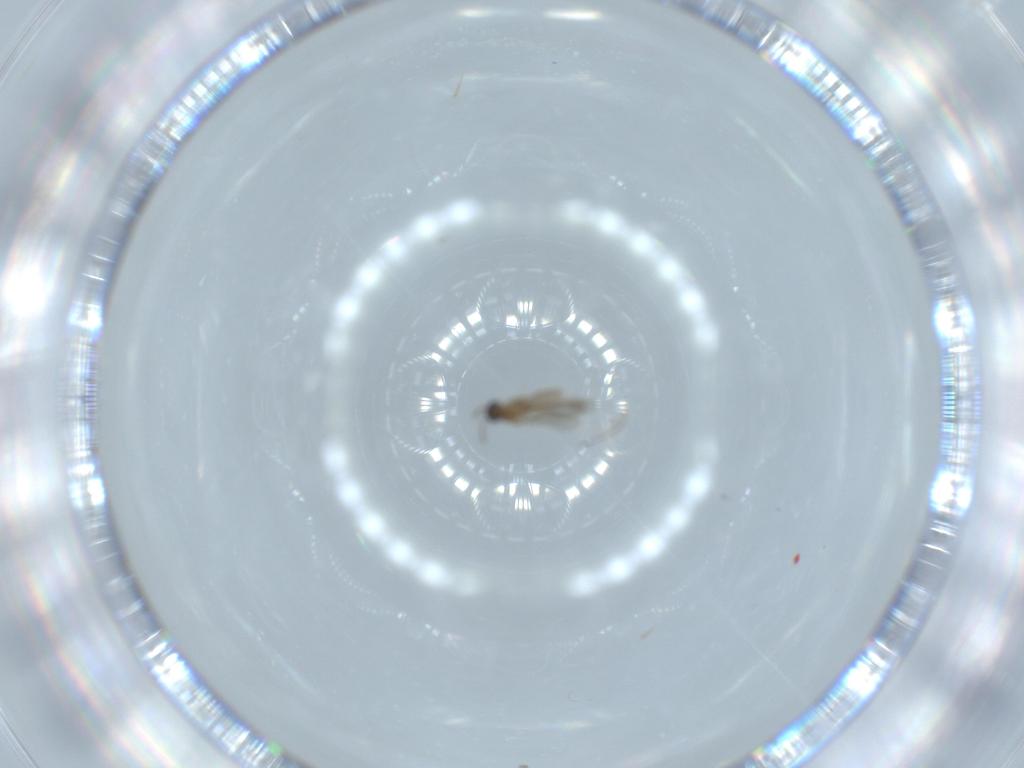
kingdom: Animalia
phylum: Arthropoda
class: Insecta
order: Diptera
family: Cecidomyiidae
